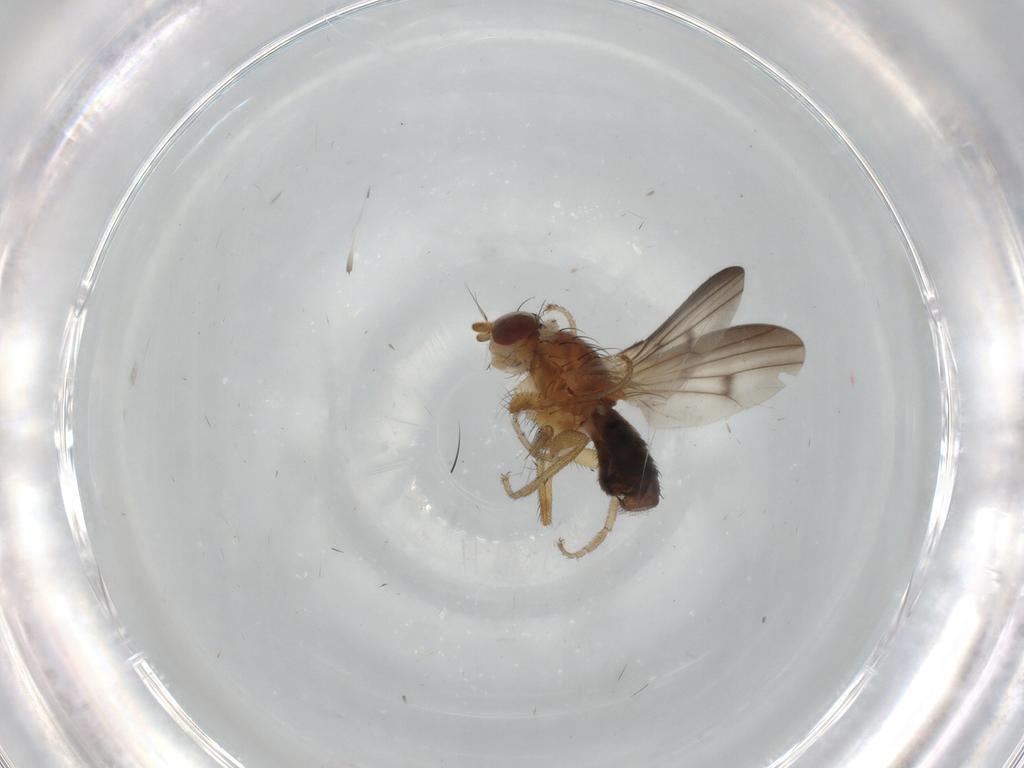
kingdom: Animalia
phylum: Arthropoda
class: Insecta
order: Diptera
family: Heleomyzidae
